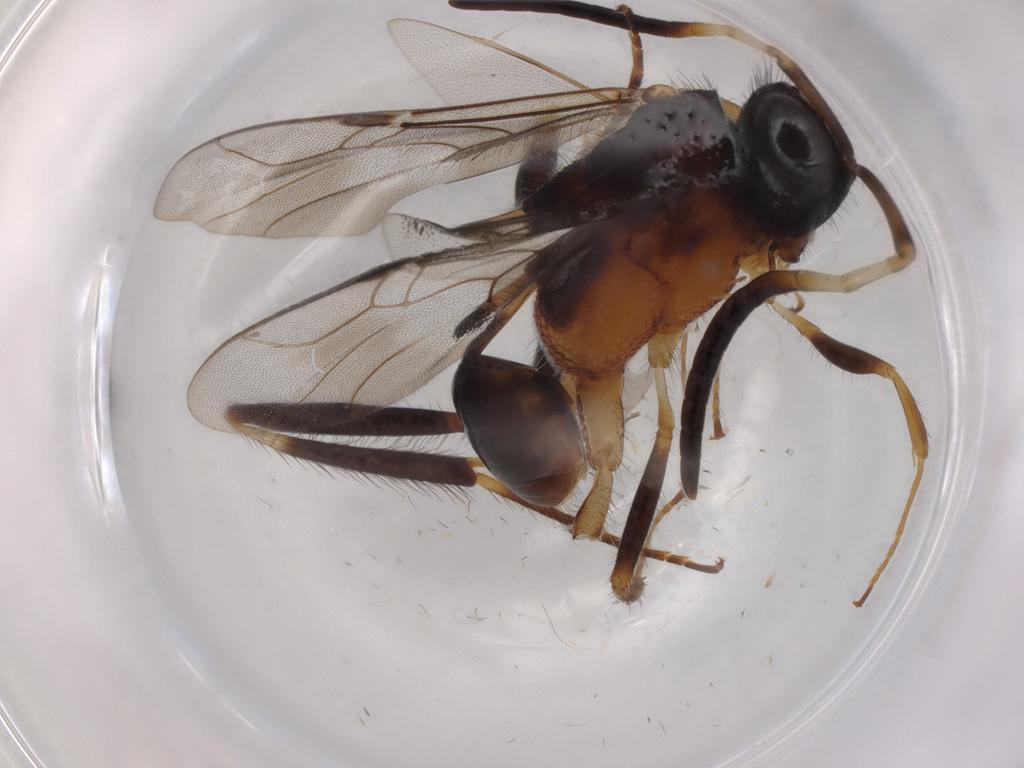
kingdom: Animalia
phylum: Arthropoda
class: Insecta
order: Hymenoptera
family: Figitidae
